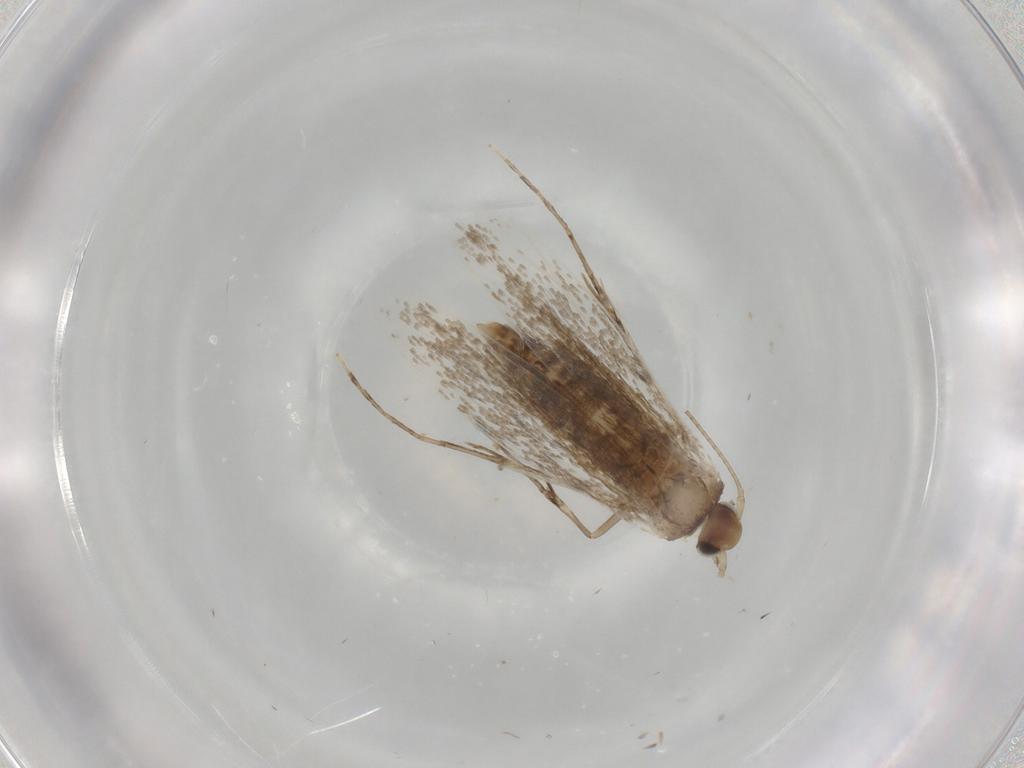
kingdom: Animalia
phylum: Arthropoda
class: Insecta
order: Lepidoptera
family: Gracillariidae
